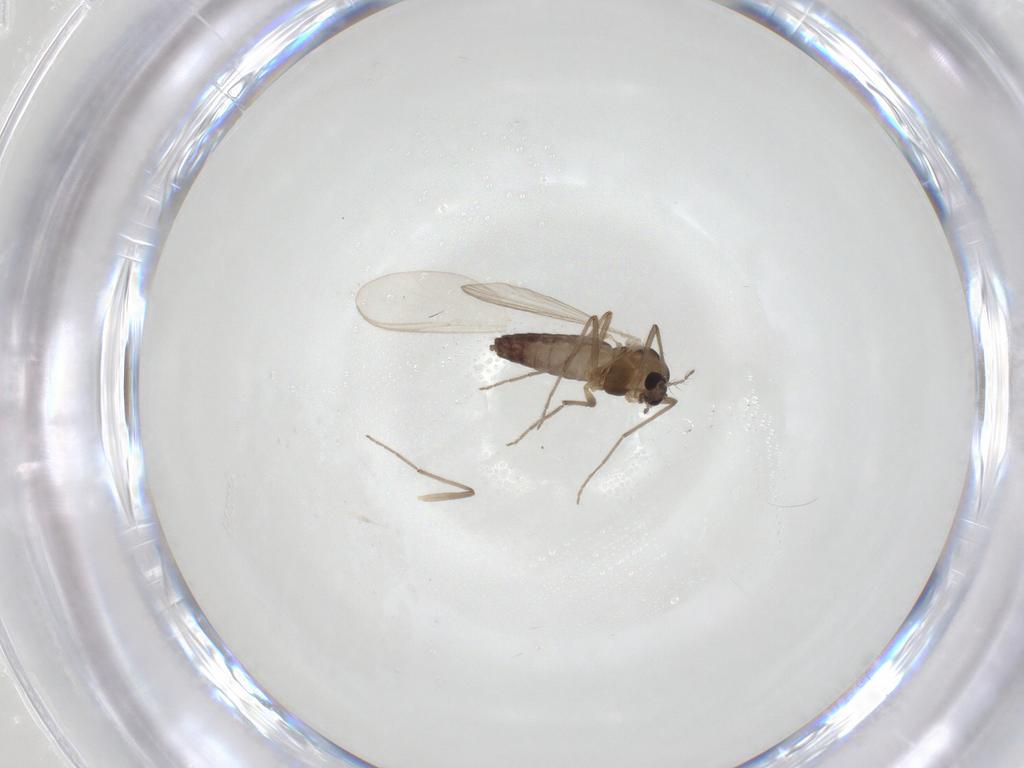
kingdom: Animalia
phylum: Arthropoda
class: Insecta
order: Diptera
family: Chironomidae
